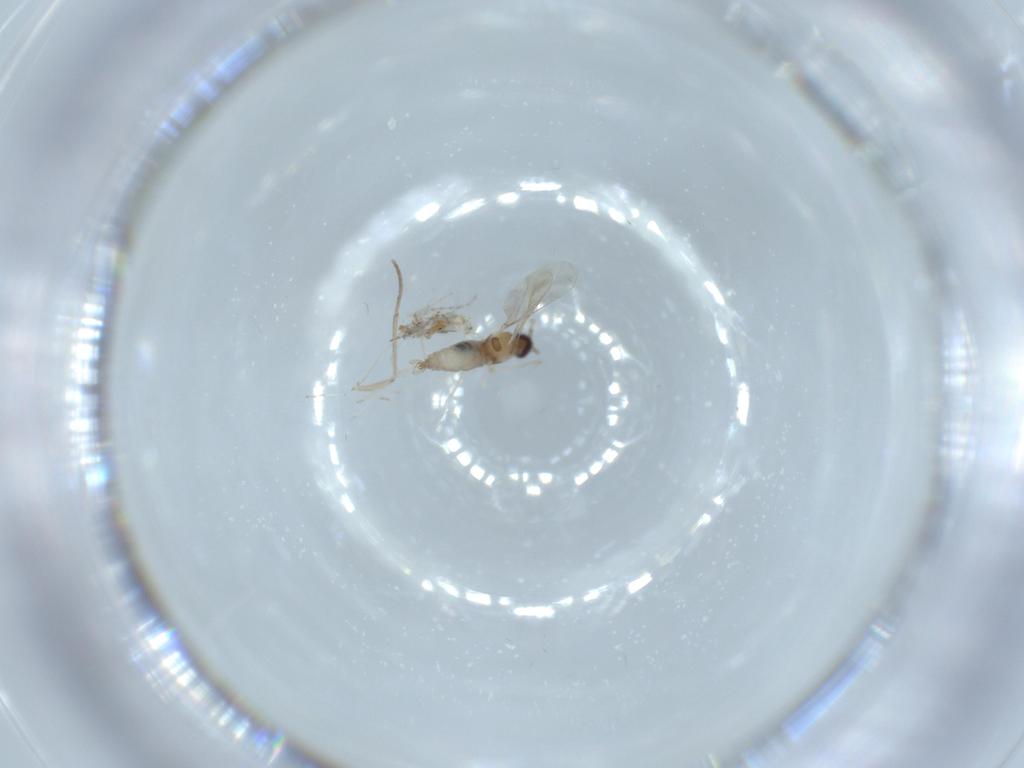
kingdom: Animalia
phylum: Arthropoda
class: Insecta
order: Diptera
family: Cecidomyiidae
